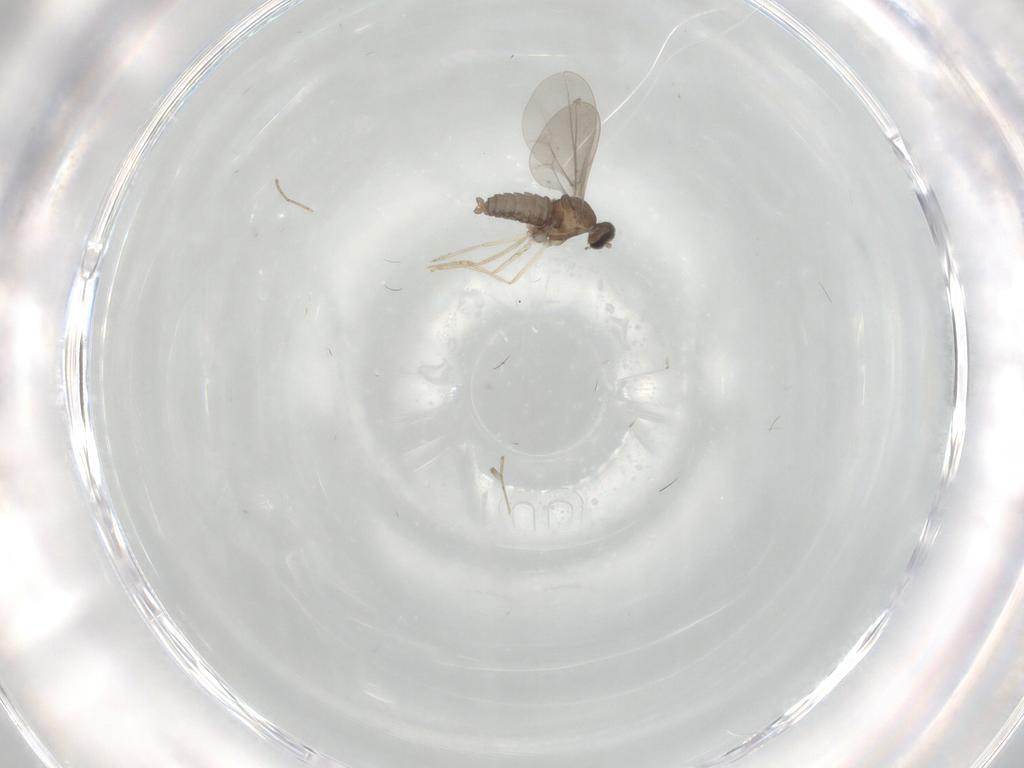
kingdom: Animalia
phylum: Arthropoda
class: Insecta
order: Diptera
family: Cecidomyiidae
